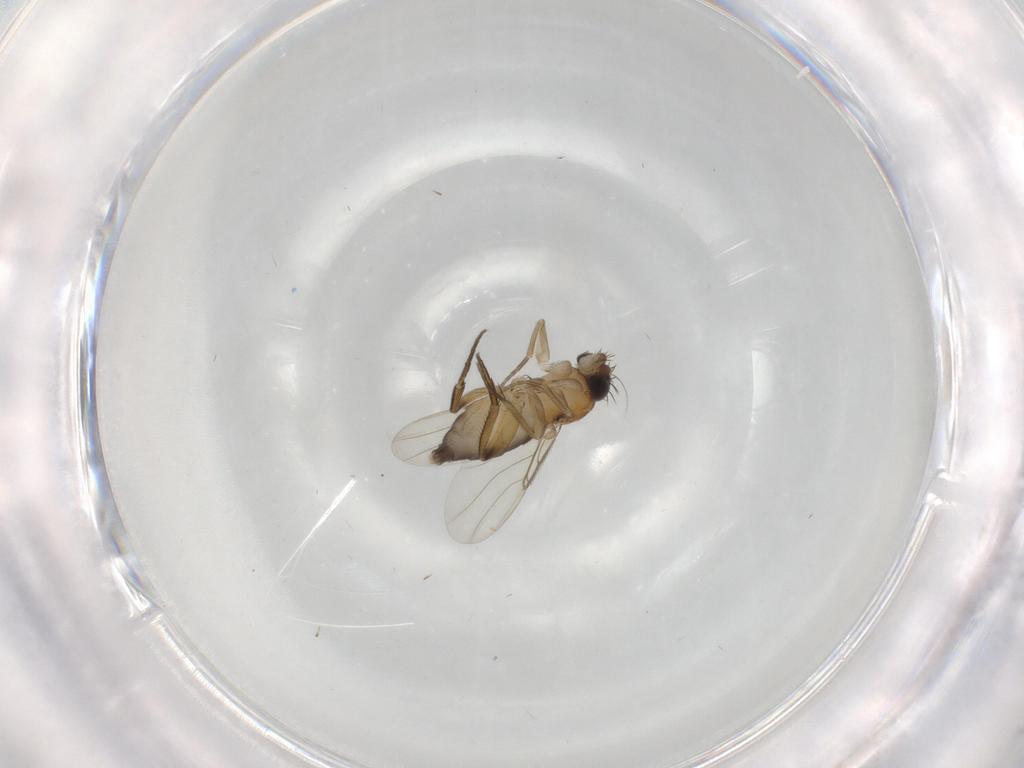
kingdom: Animalia
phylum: Arthropoda
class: Insecta
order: Diptera
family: Phoridae
